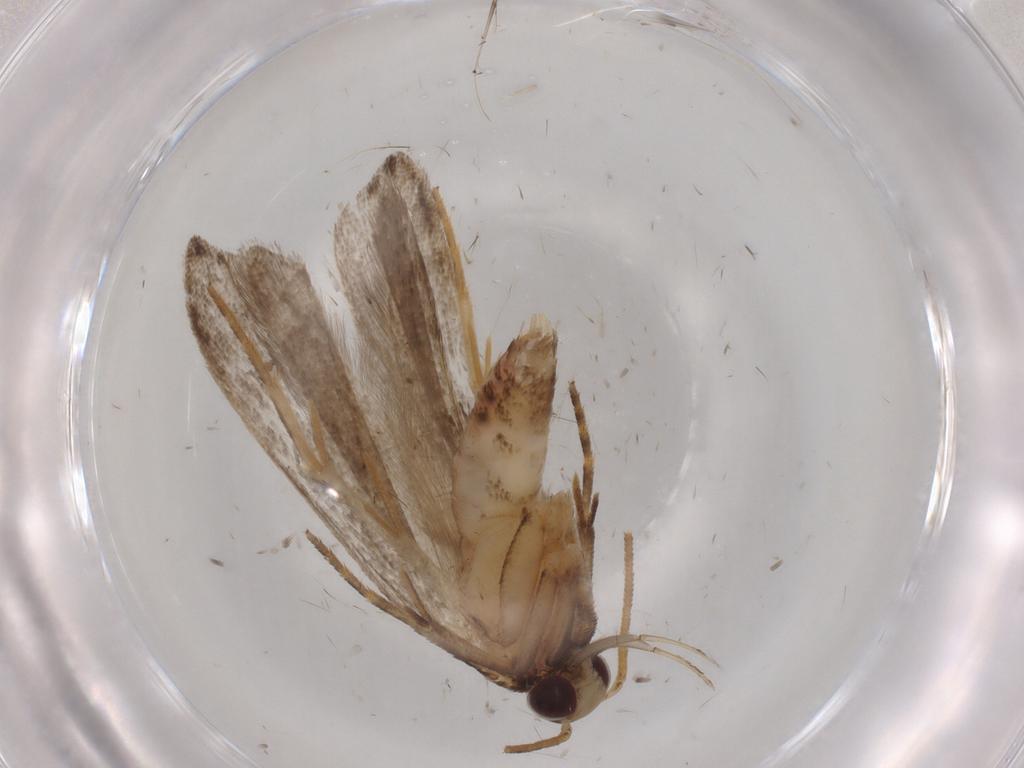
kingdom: Animalia
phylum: Arthropoda
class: Insecta
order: Lepidoptera
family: Gelechiidae
